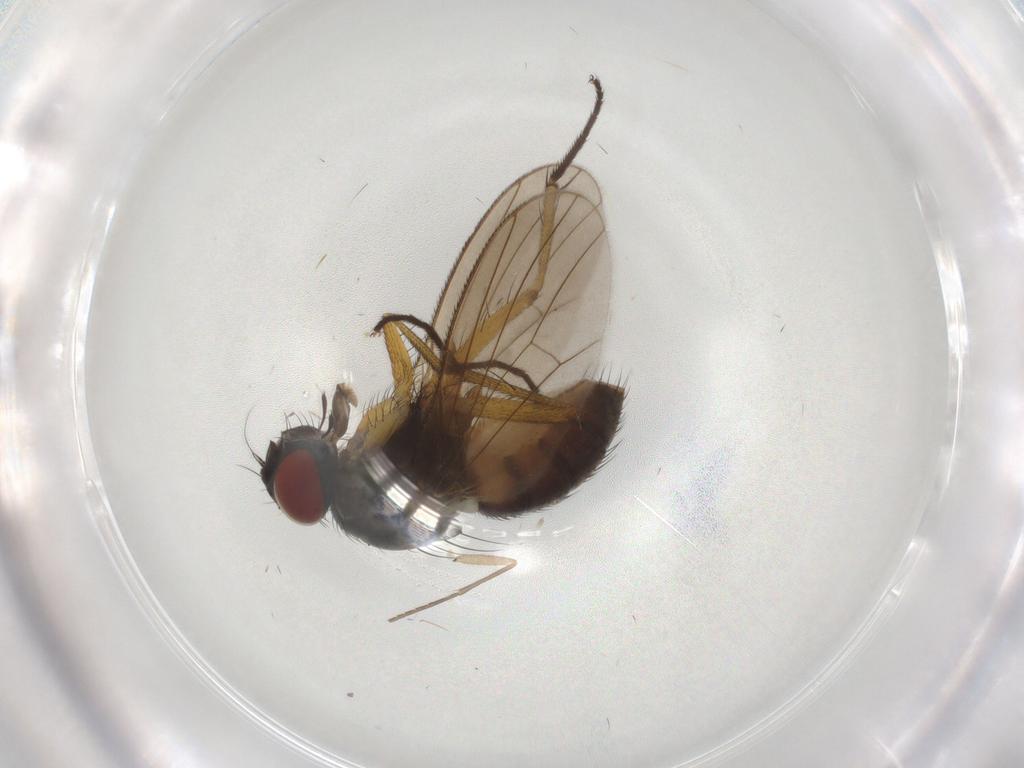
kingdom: Animalia
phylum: Arthropoda
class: Insecta
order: Diptera
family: Muscidae
